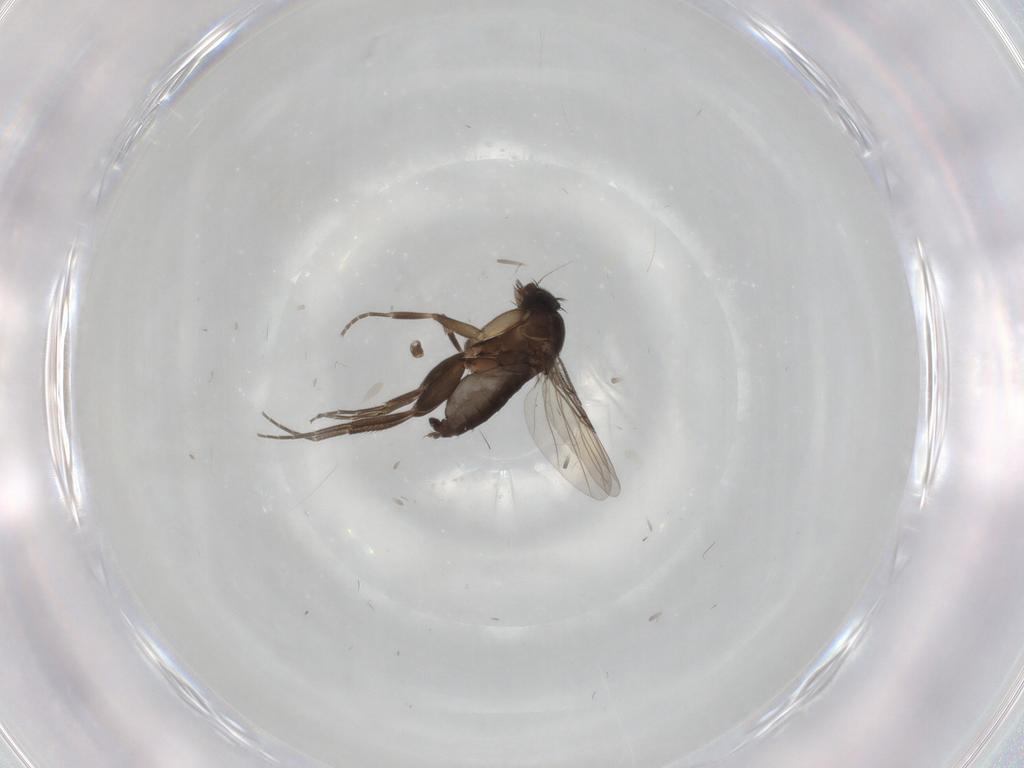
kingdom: Animalia
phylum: Arthropoda
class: Insecta
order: Diptera
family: Phoridae
